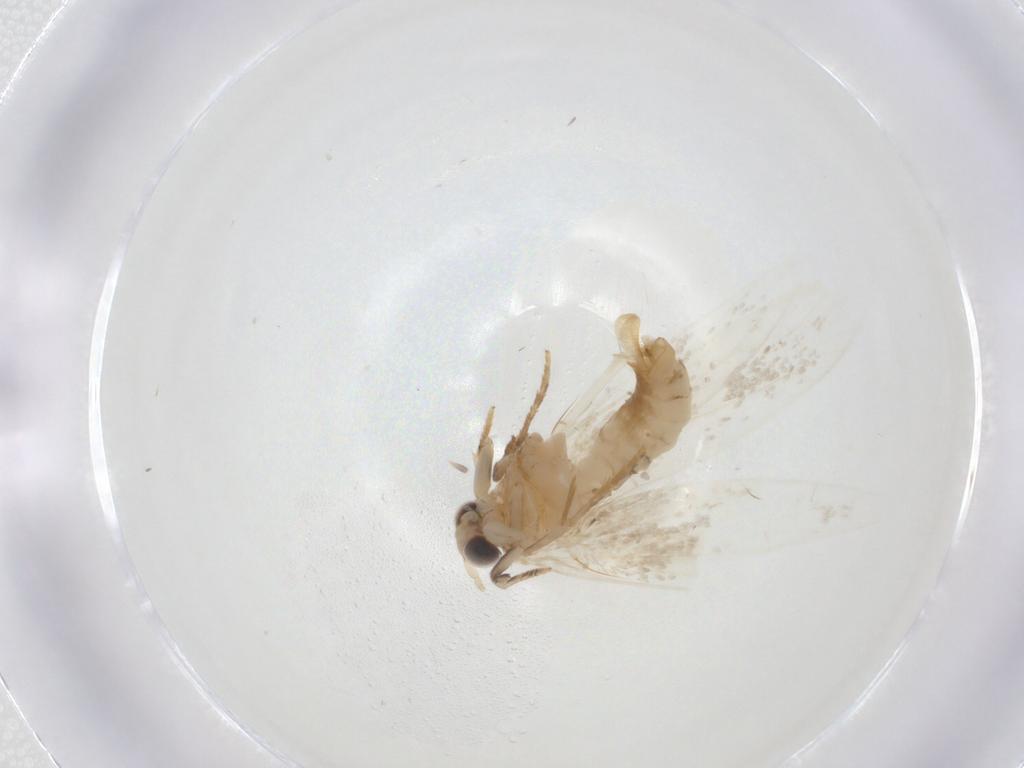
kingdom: Animalia
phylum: Arthropoda
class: Insecta
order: Lepidoptera
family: Tineidae
